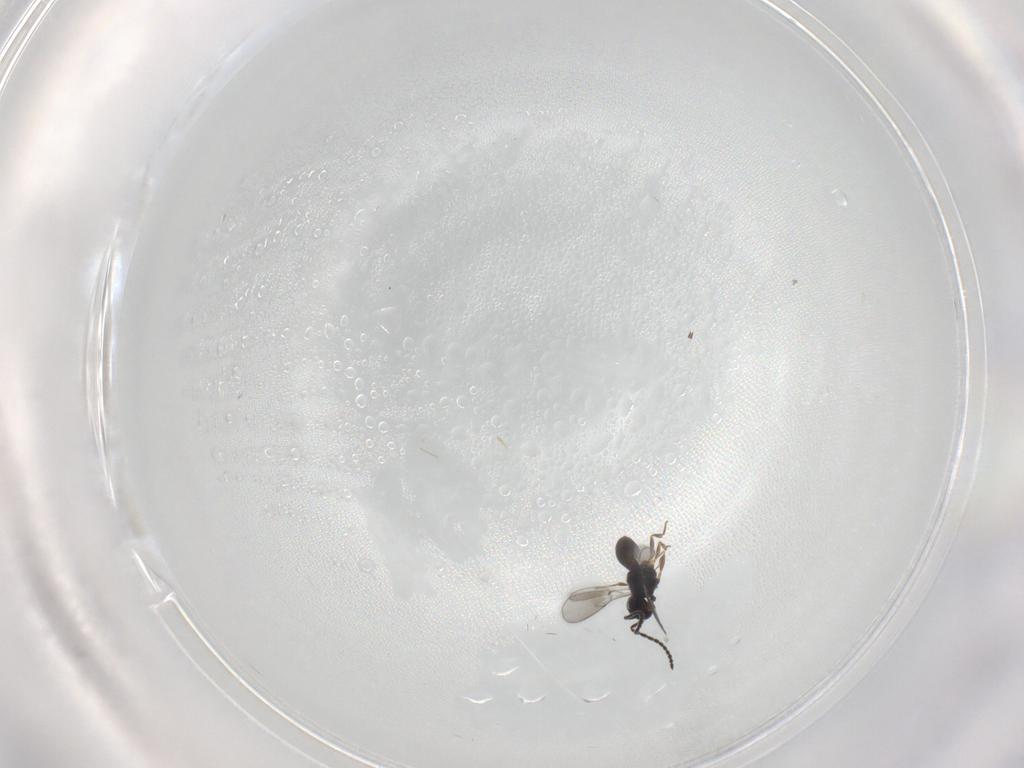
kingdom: Animalia
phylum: Arthropoda
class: Insecta
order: Hymenoptera
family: Scelionidae
